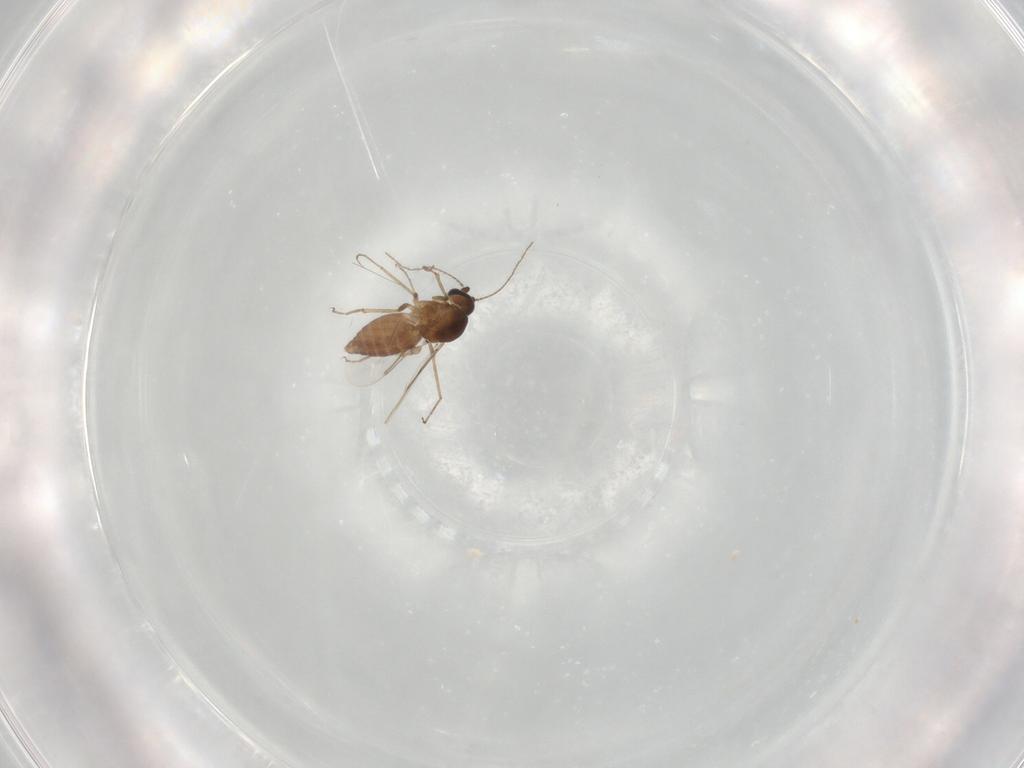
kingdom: Animalia
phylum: Arthropoda
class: Insecta
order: Diptera
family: Ceratopogonidae
